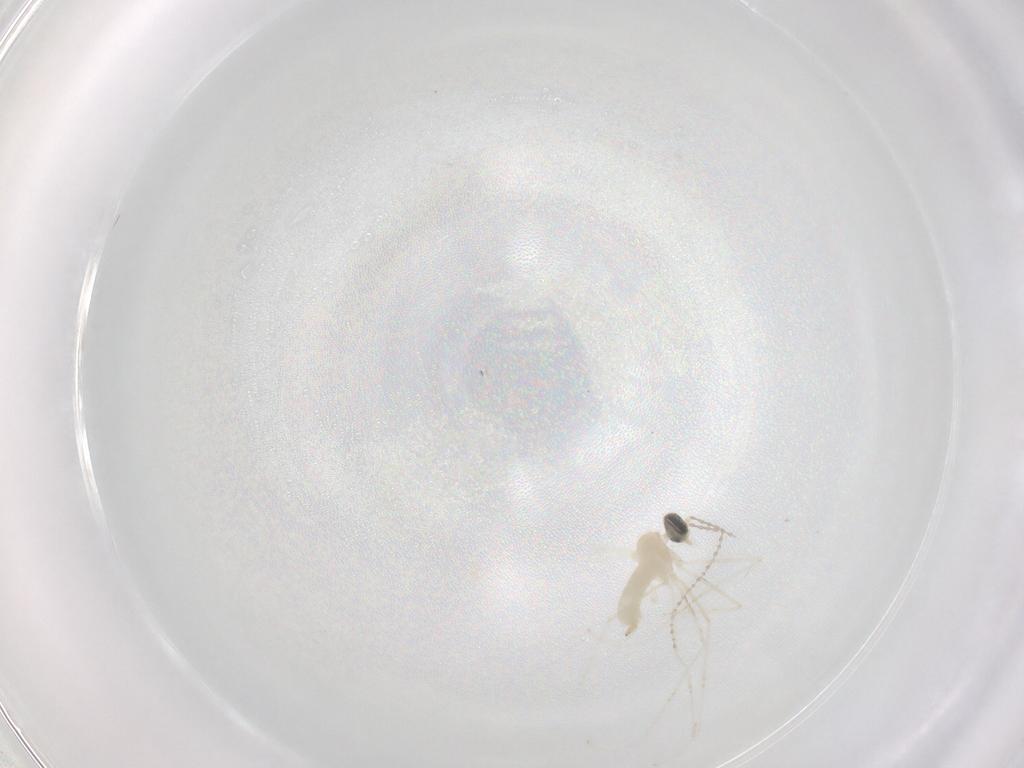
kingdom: Animalia
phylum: Arthropoda
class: Insecta
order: Diptera
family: Cecidomyiidae
